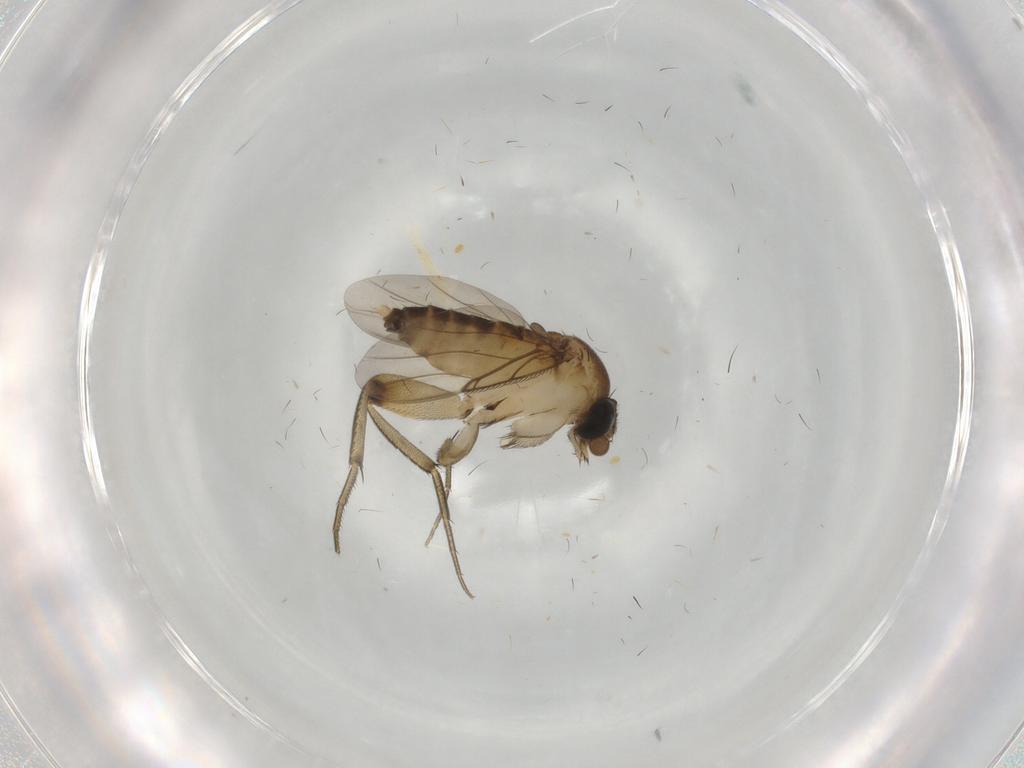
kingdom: Animalia
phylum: Arthropoda
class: Insecta
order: Diptera
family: Phoridae
